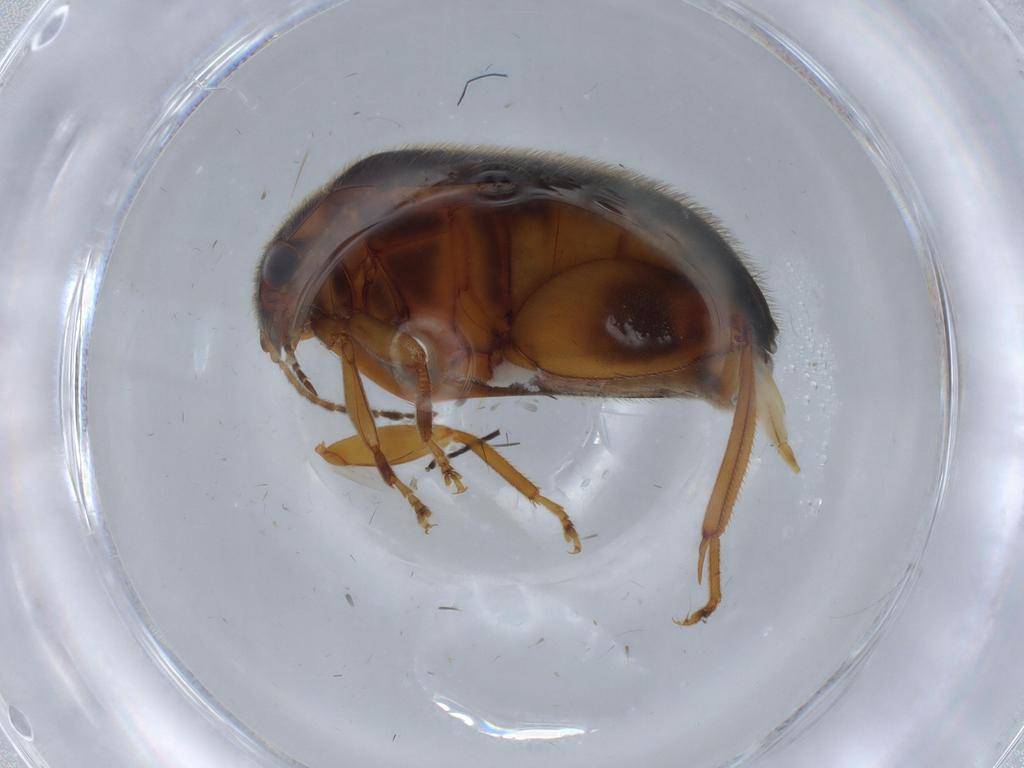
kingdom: Animalia
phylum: Arthropoda
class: Insecta
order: Coleoptera
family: Scirtidae
